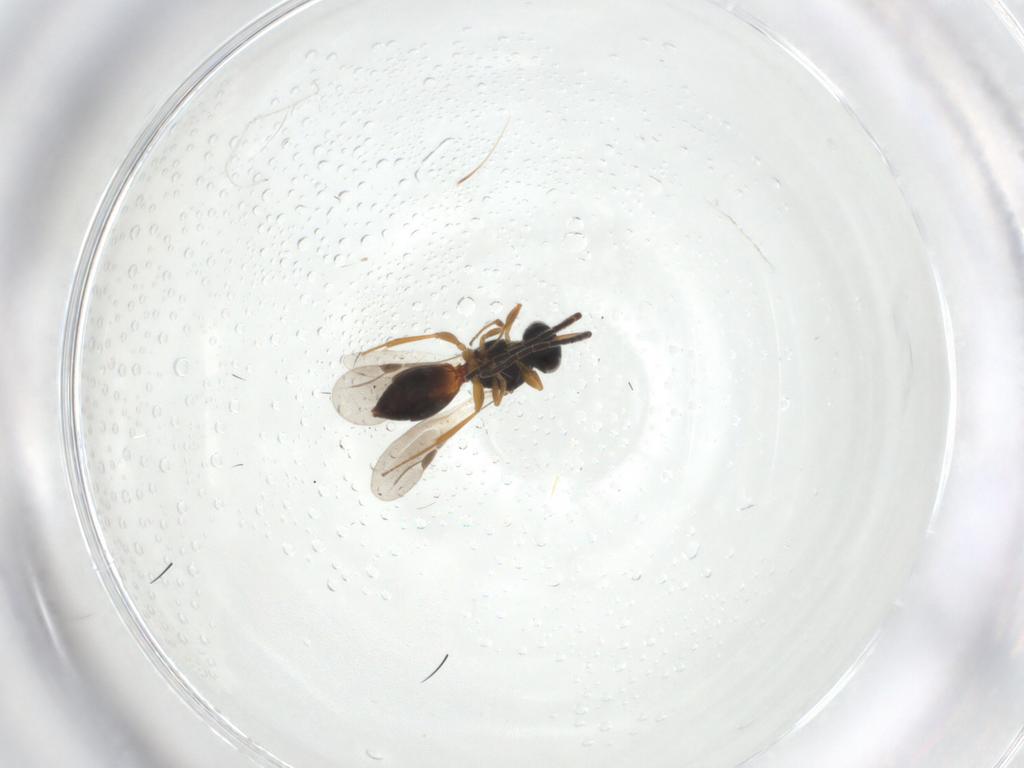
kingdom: Animalia
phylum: Arthropoda
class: Insecta
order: Hymenoptera
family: Megaspilidae
